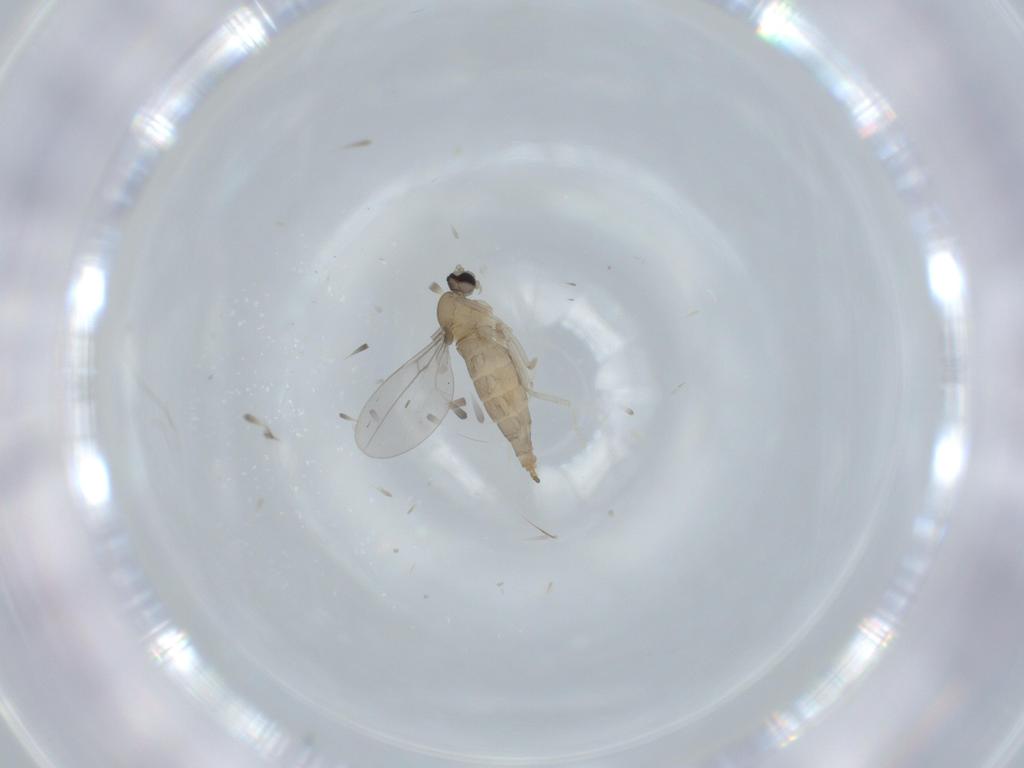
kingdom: Animalia
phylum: Arthropoda
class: Insecta
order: Diptera
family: Cecidomyiidae
